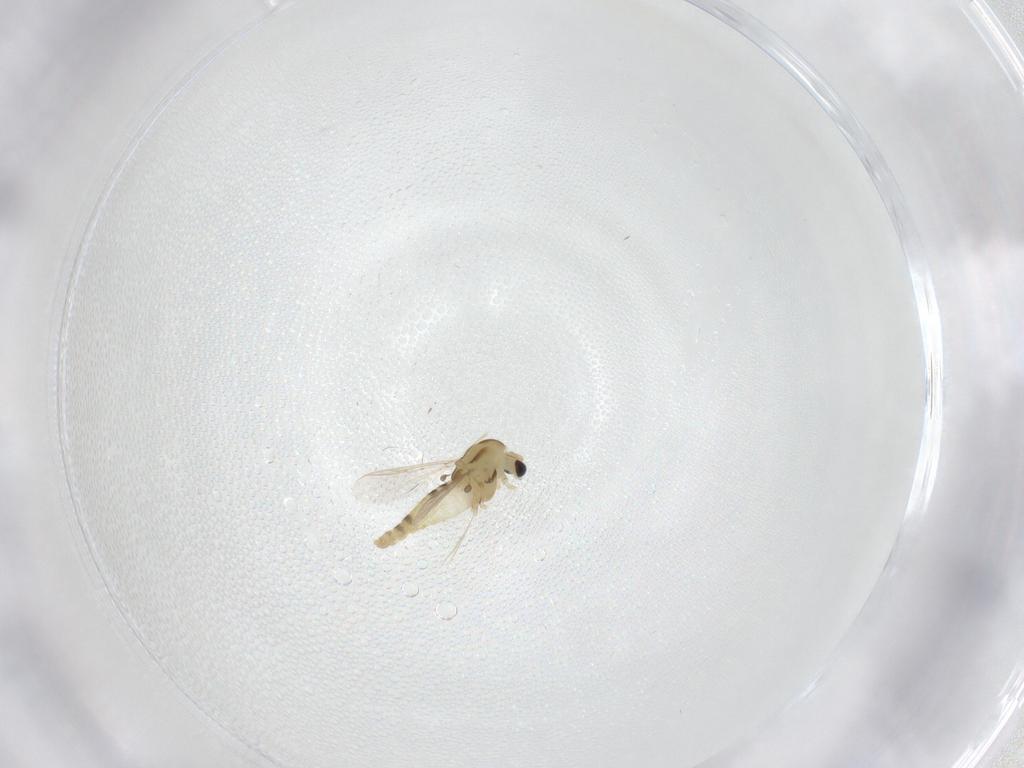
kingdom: Animalia
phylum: Arthropoda
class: Insecta
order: Diptera
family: Chironomidae
